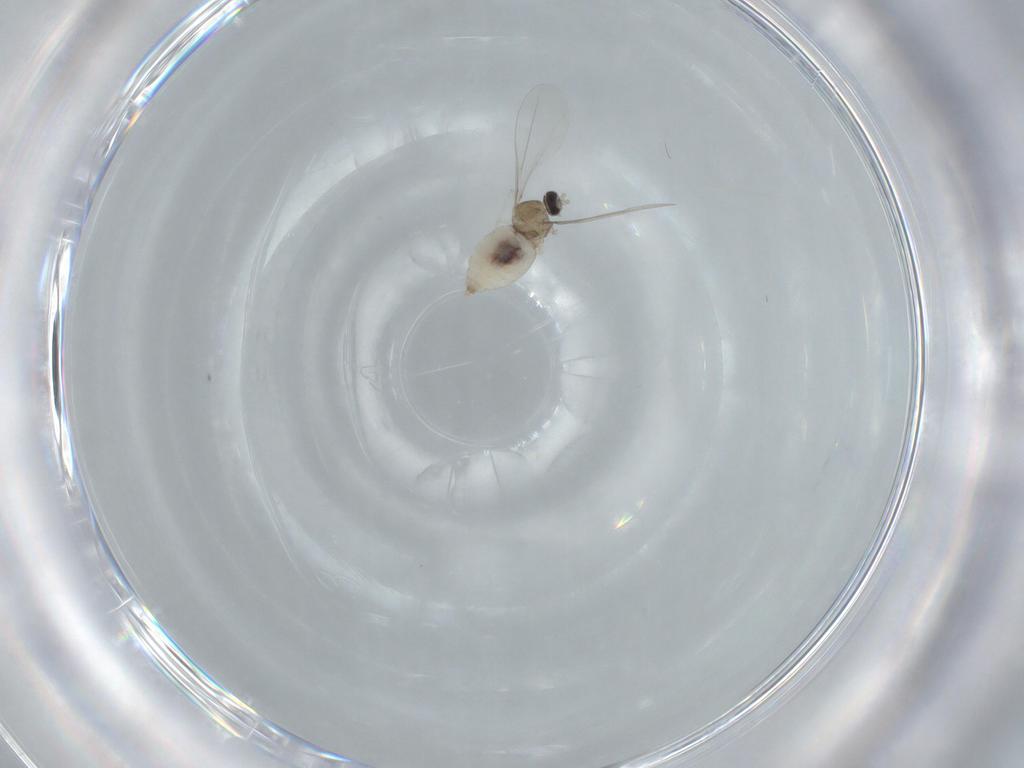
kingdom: Animalia
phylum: Arthropoda
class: Insecta
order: Diptera
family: Cecidomyiidae
